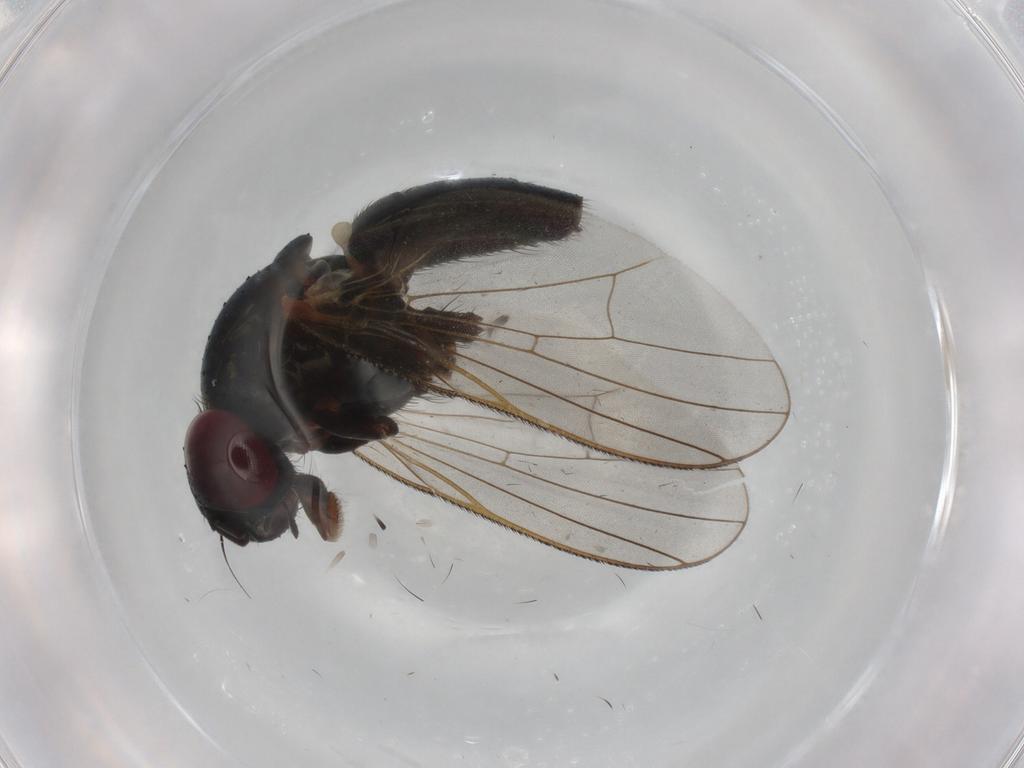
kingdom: Animalia
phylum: Arthropoda
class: Insecta
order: Diptera
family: Fannia
